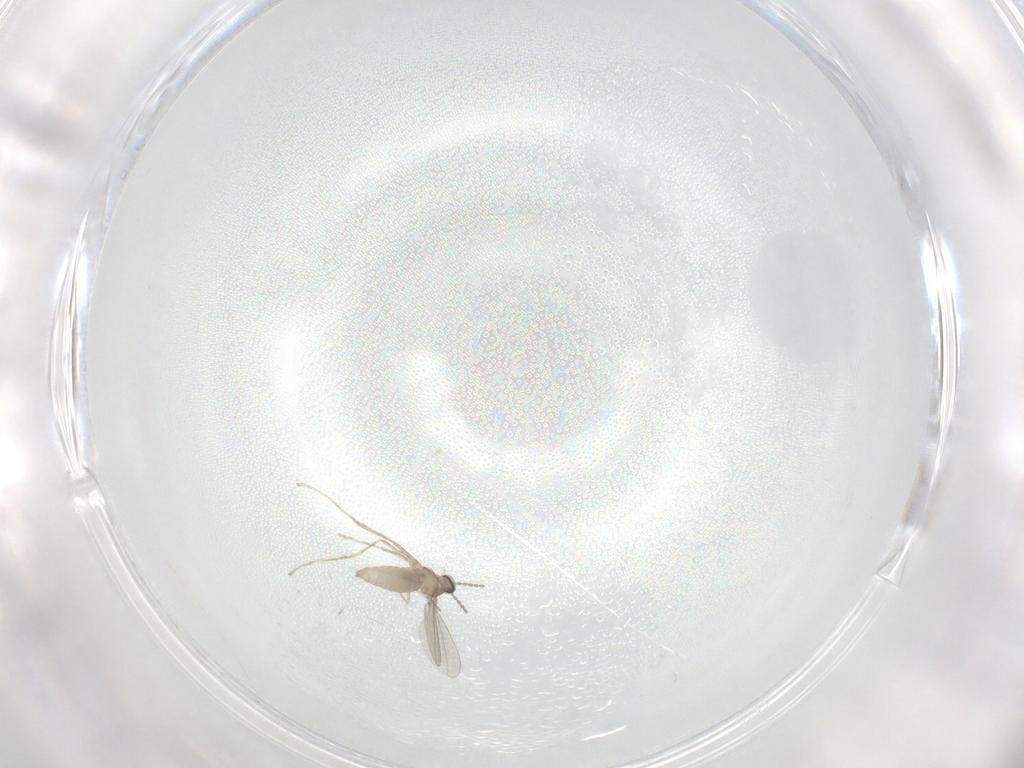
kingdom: Animalia
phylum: Arthropoda
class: Insecta
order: Diptera
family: Cecidomyiidae
